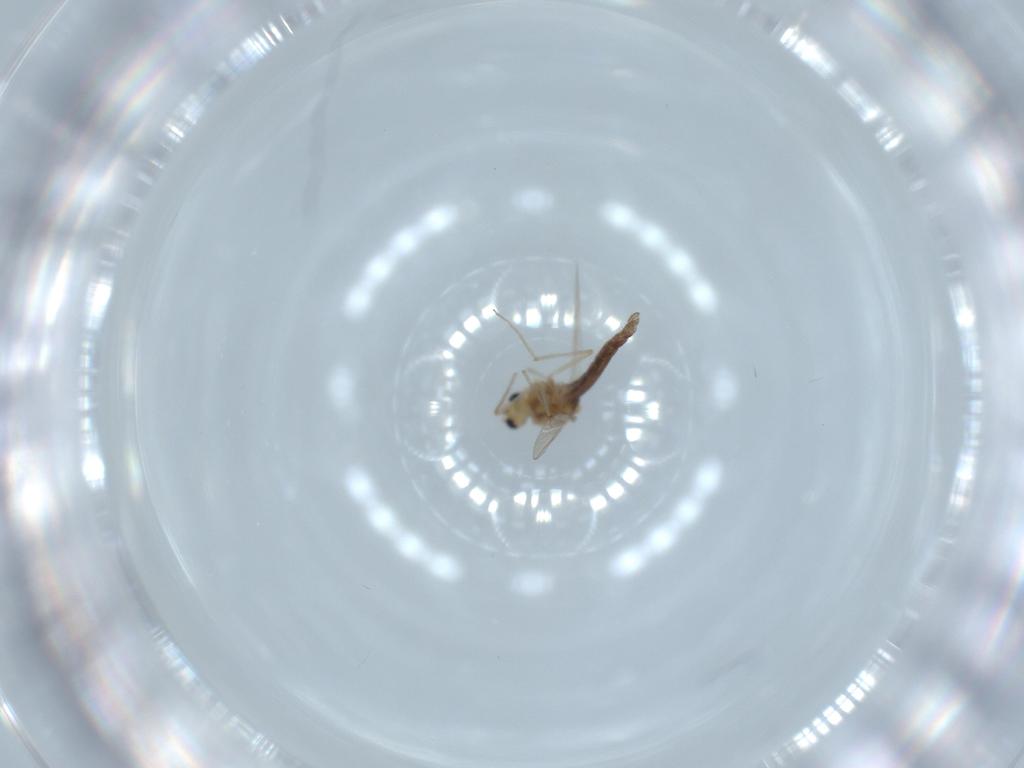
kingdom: Animalia
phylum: Arthropoda
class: Insecta
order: Diptera
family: Chironomidae
